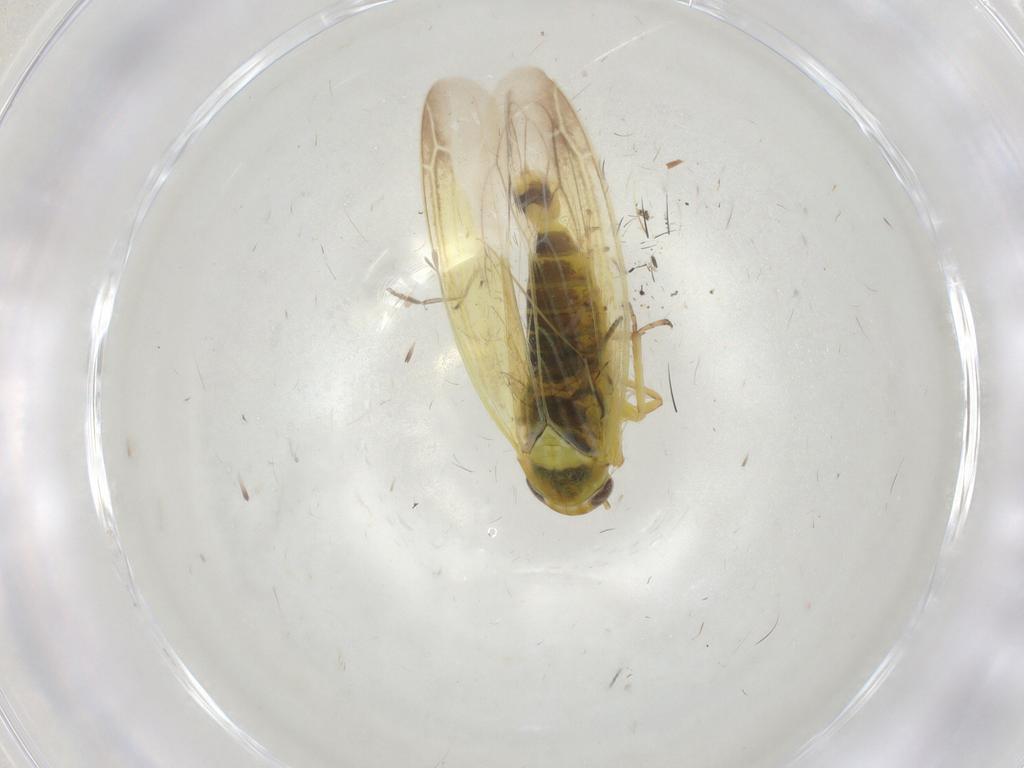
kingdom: Animalia
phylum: Arthropoda
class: Insecta
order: Hemiptera
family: Cicadellidae
